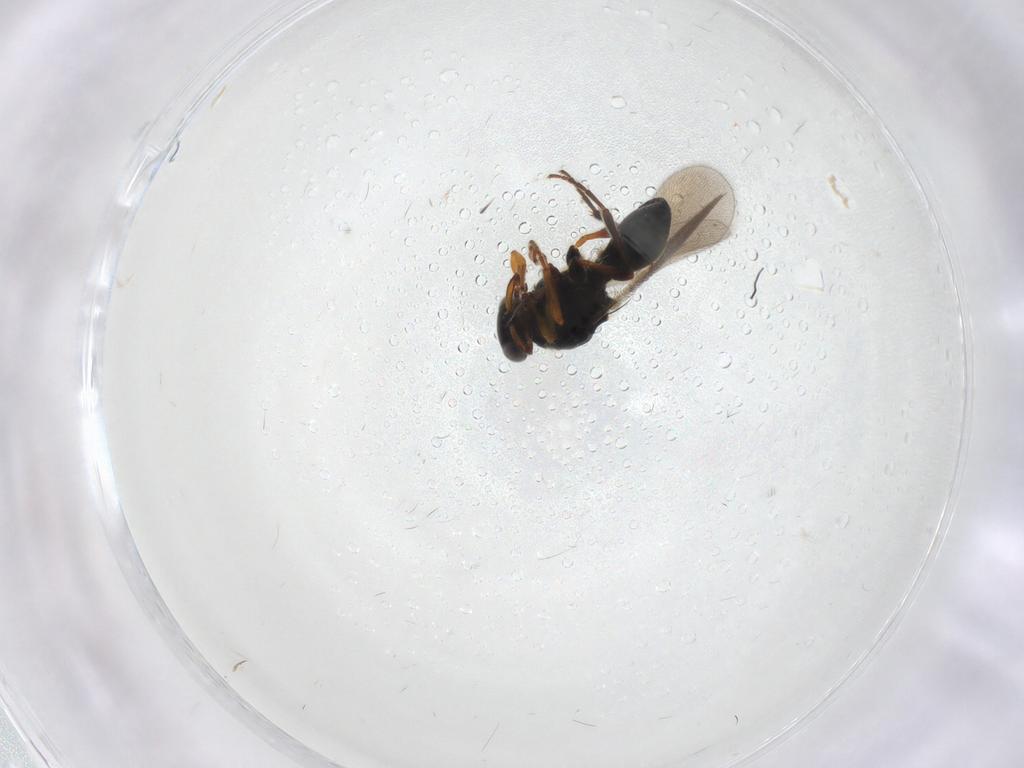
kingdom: Animalia
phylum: Arthropoda
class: Insecta
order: Hymenoptera
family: Platygastridae
